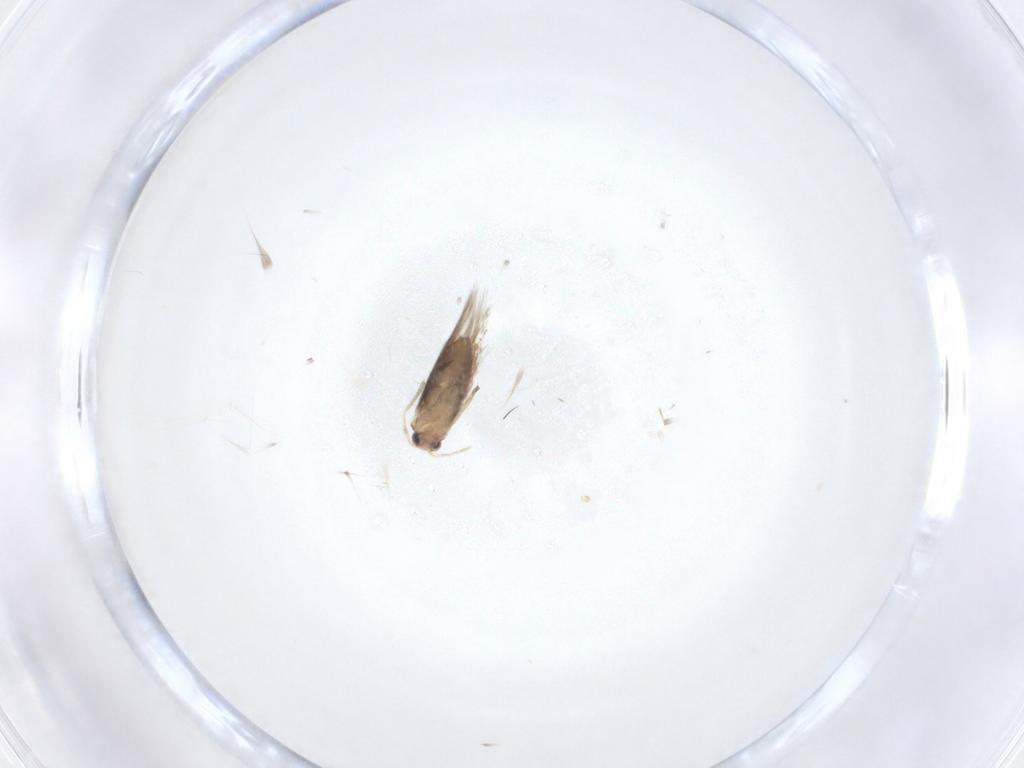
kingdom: Animalia
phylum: Arthropoda
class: Insecta
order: Lepidoptera
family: Nepticulidae
